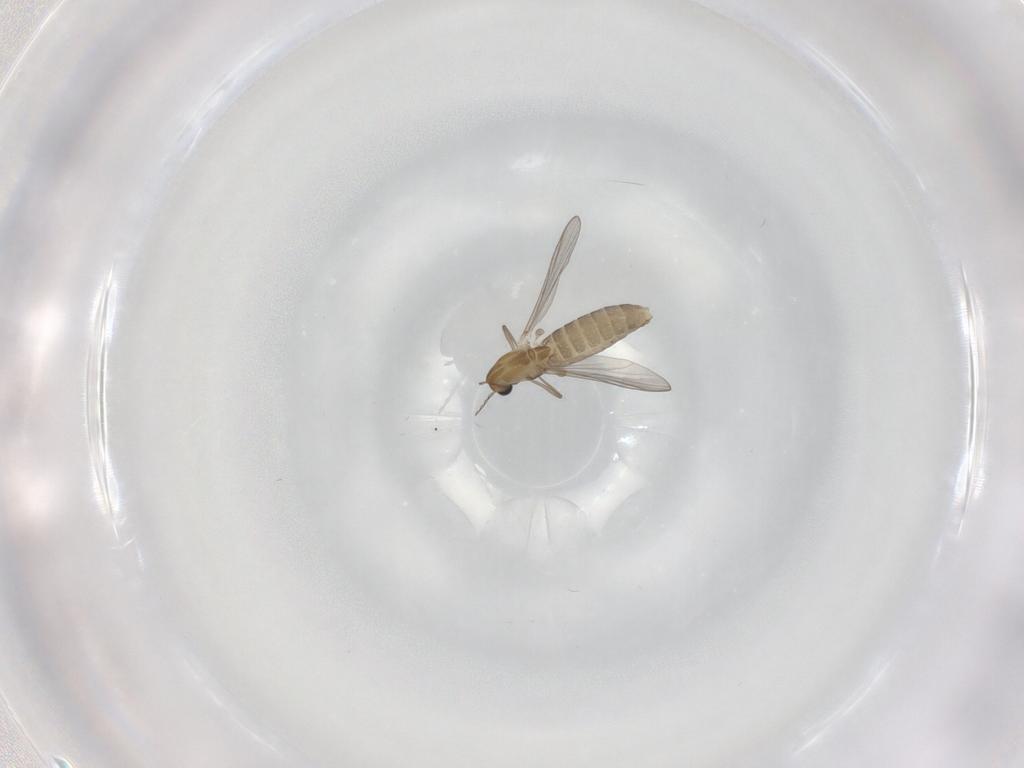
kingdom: Animalia
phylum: Arthropoda
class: Insecta
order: Diptera
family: Chironomidae
